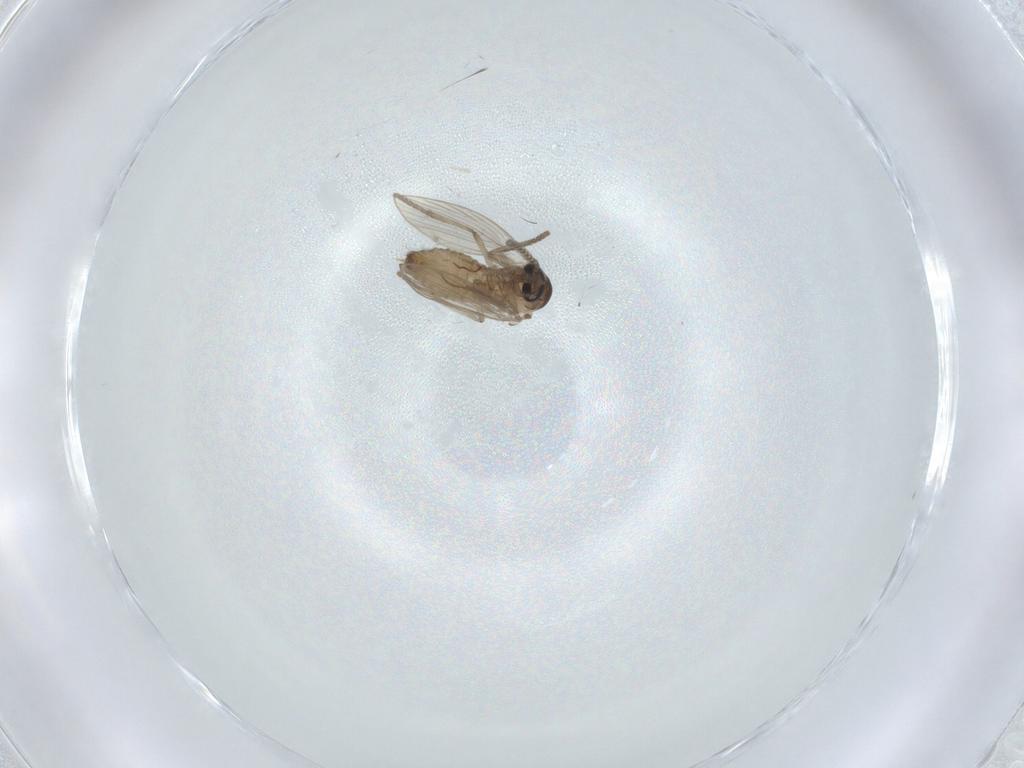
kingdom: Animalia
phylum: Arthropoda
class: Insecta
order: Diptera
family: Psychodidae
